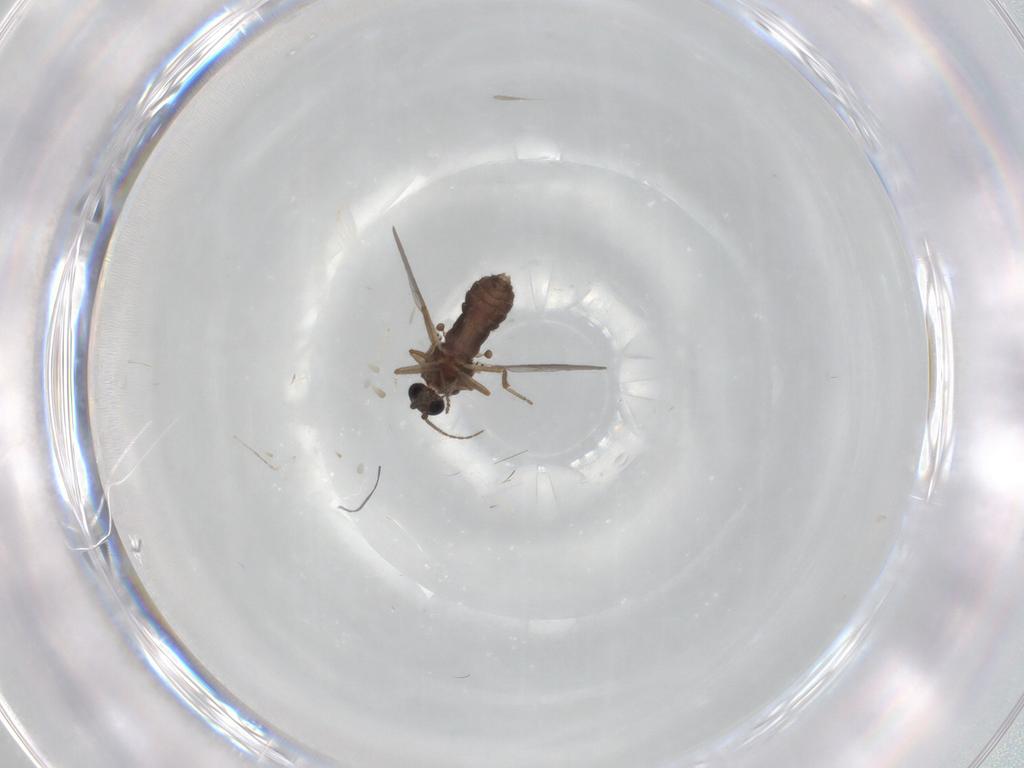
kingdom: Animalia
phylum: Arthropoda
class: Insecta
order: Diptera
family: Ceratopogonidae
